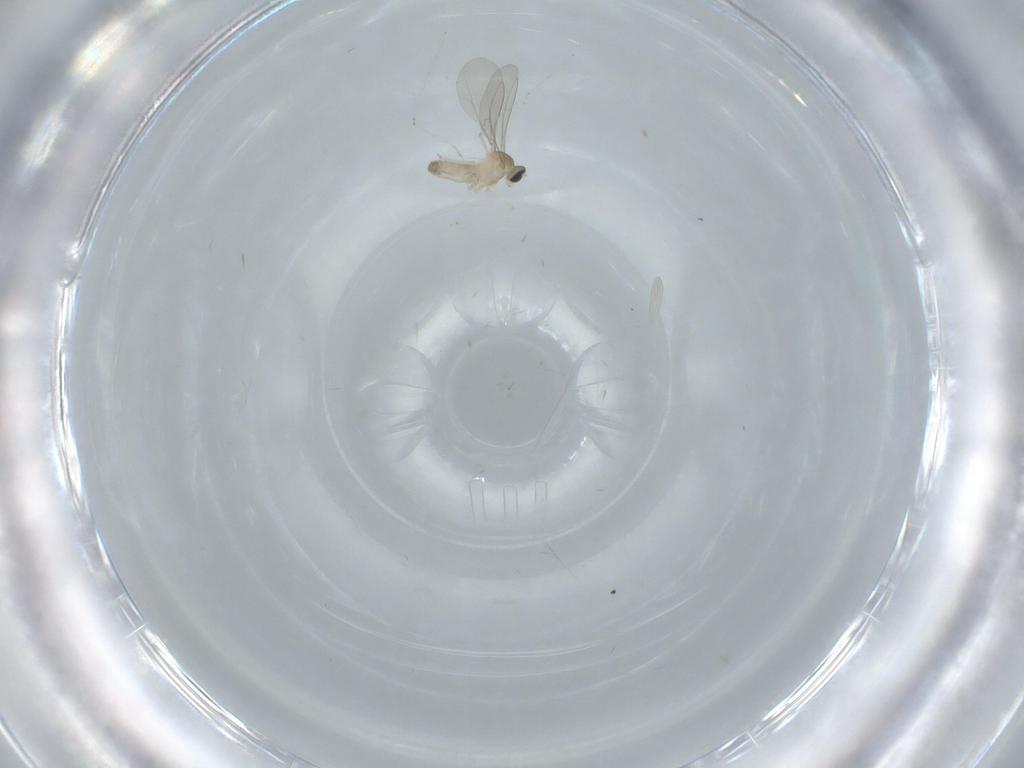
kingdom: Animalia
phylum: Arthropoda
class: Insecta
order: Diptera
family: Cecidomyiidae
